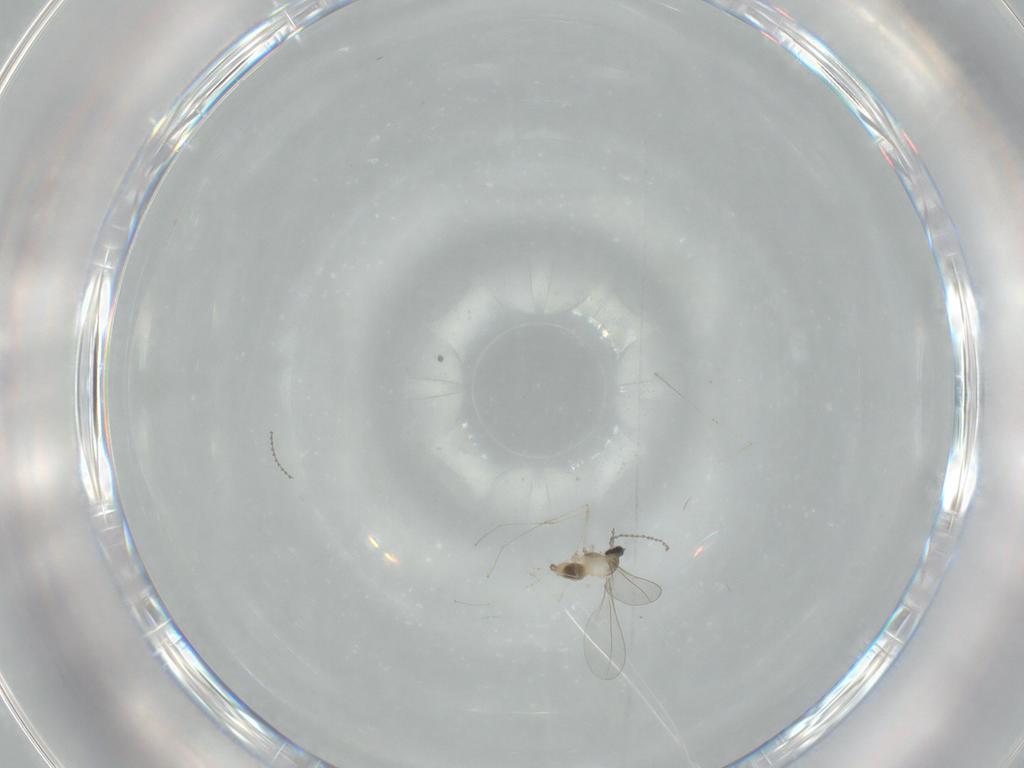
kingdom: Animalia
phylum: Arthropoda
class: Insecta
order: Diptera
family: Cecidomyiidae
